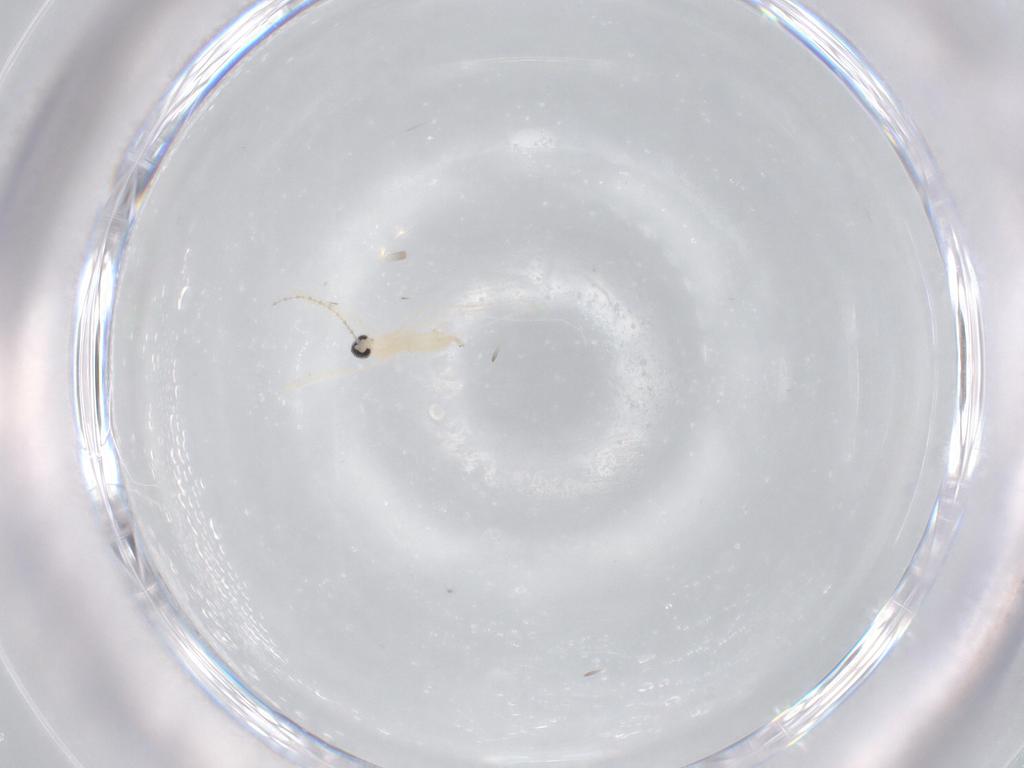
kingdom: Animalia
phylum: Arthropoda
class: Insecta
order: Diptera
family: Cecidomyiidae
